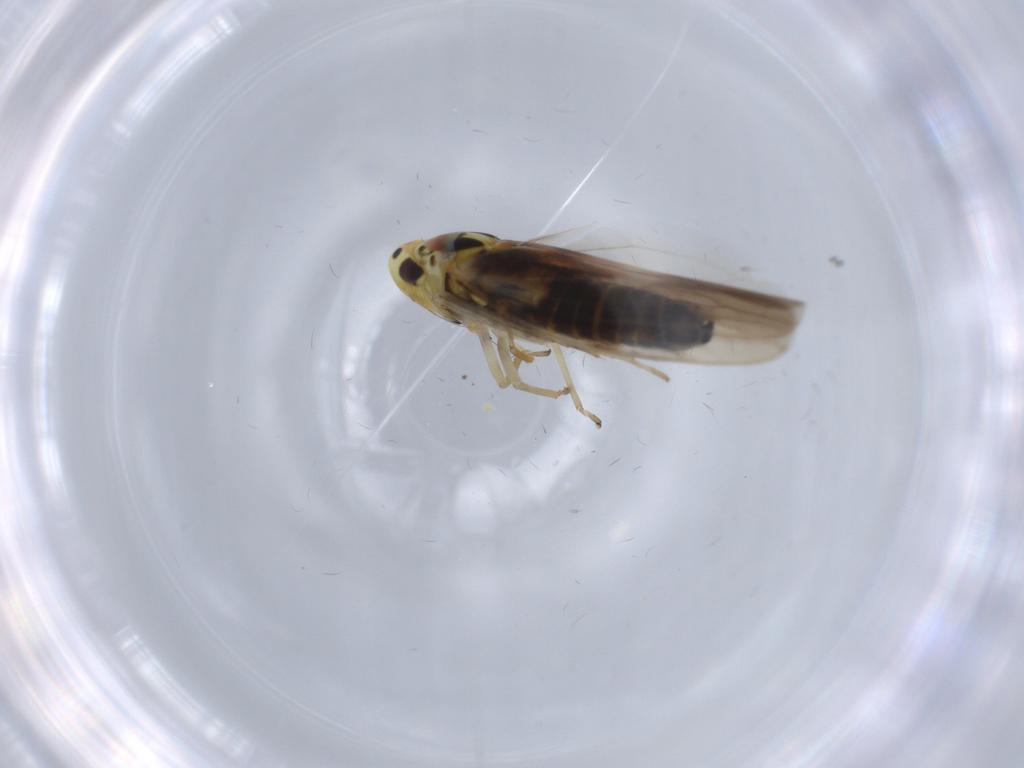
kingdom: Animalia
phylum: Arthropoda
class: Insecta
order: Hemiptera
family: Cicadellidae
